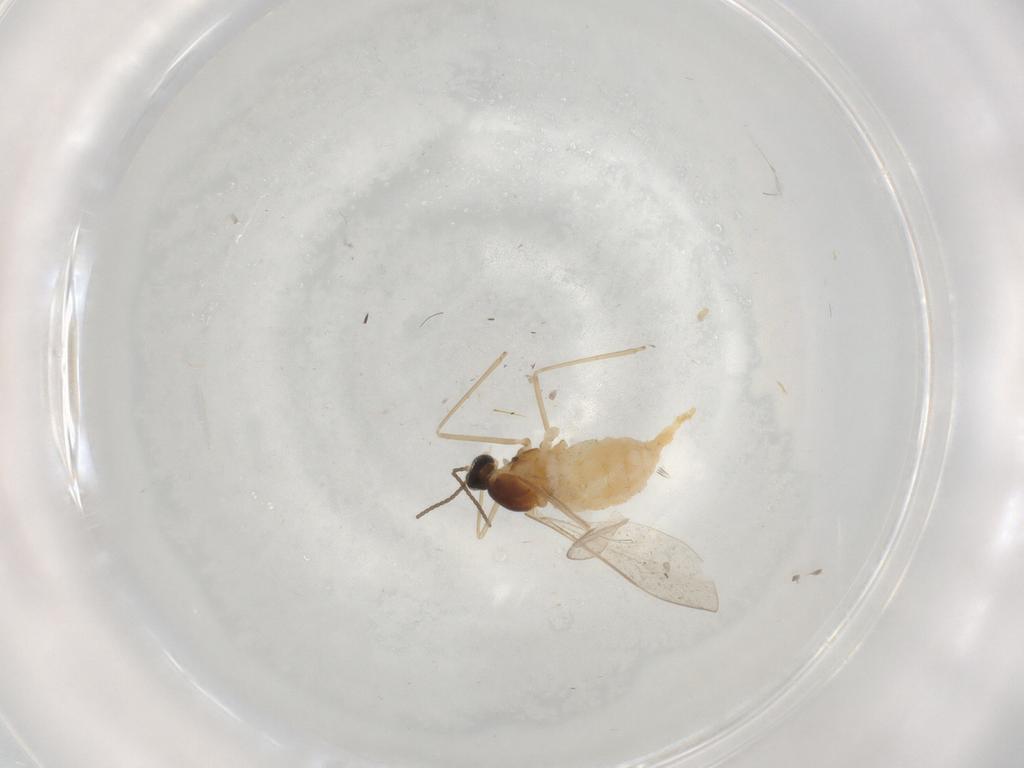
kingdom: Animalia
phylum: Arthropoda
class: Insecta
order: Diptera
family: Cecidomyiidae
